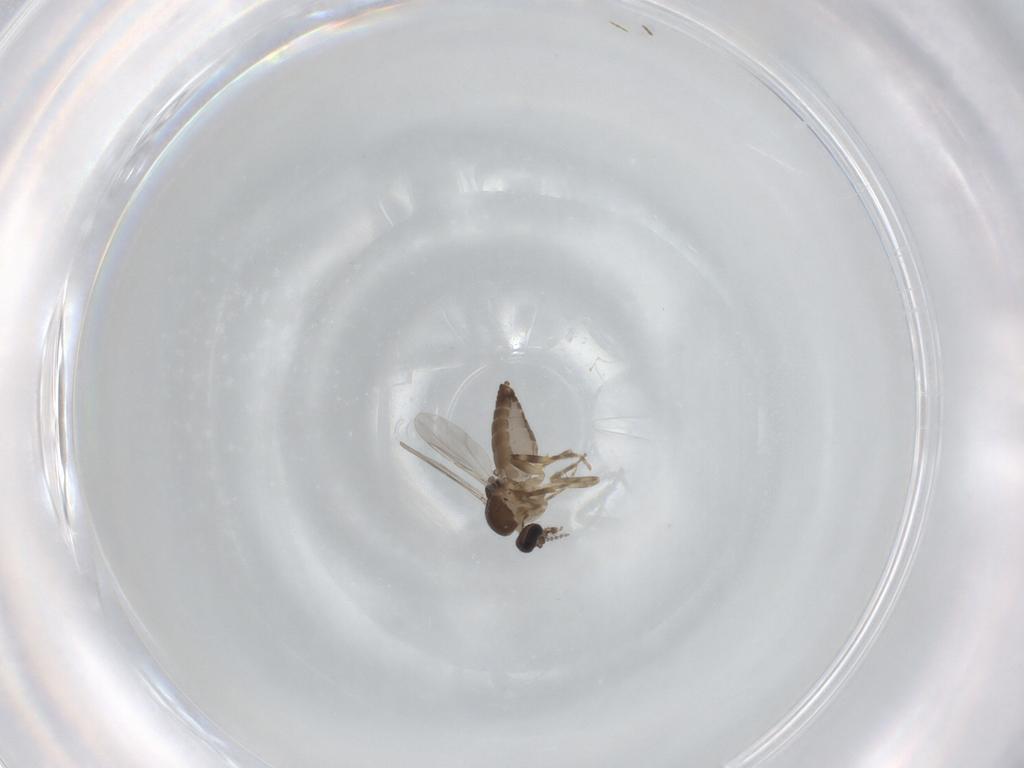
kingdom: Animalia
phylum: Arthropoda
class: Insecta
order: Diptera
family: Ceratopogonidae
